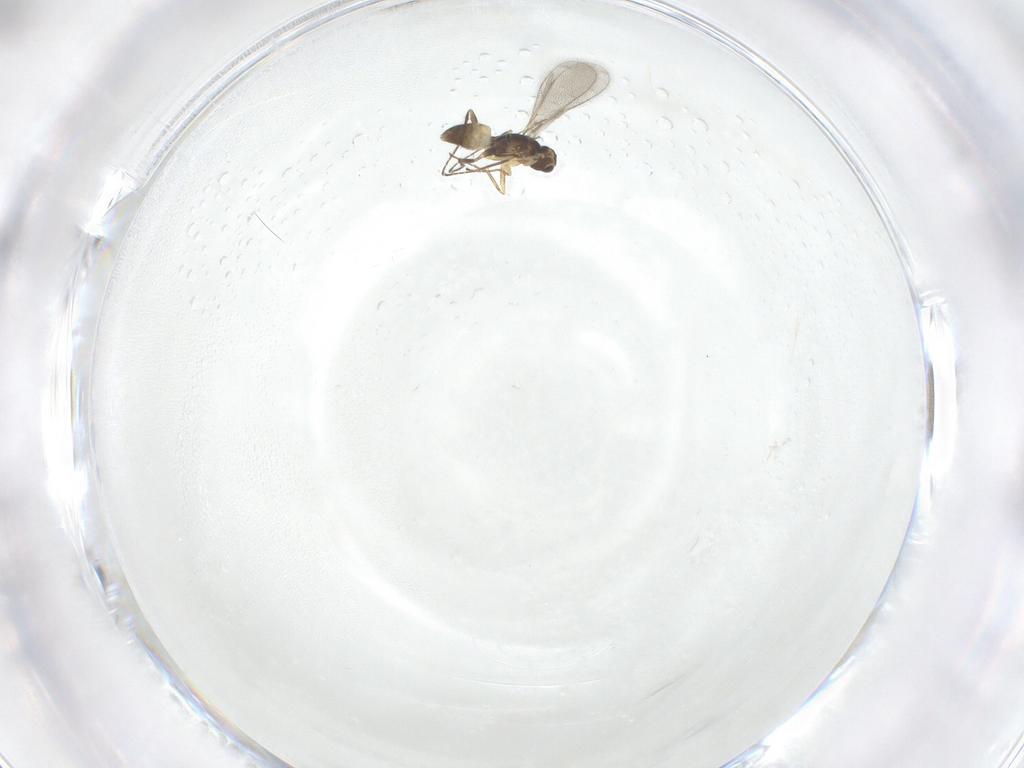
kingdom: Animalia
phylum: Arthropoda
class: Insecta
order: Hymenoptera
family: Mymaridae
